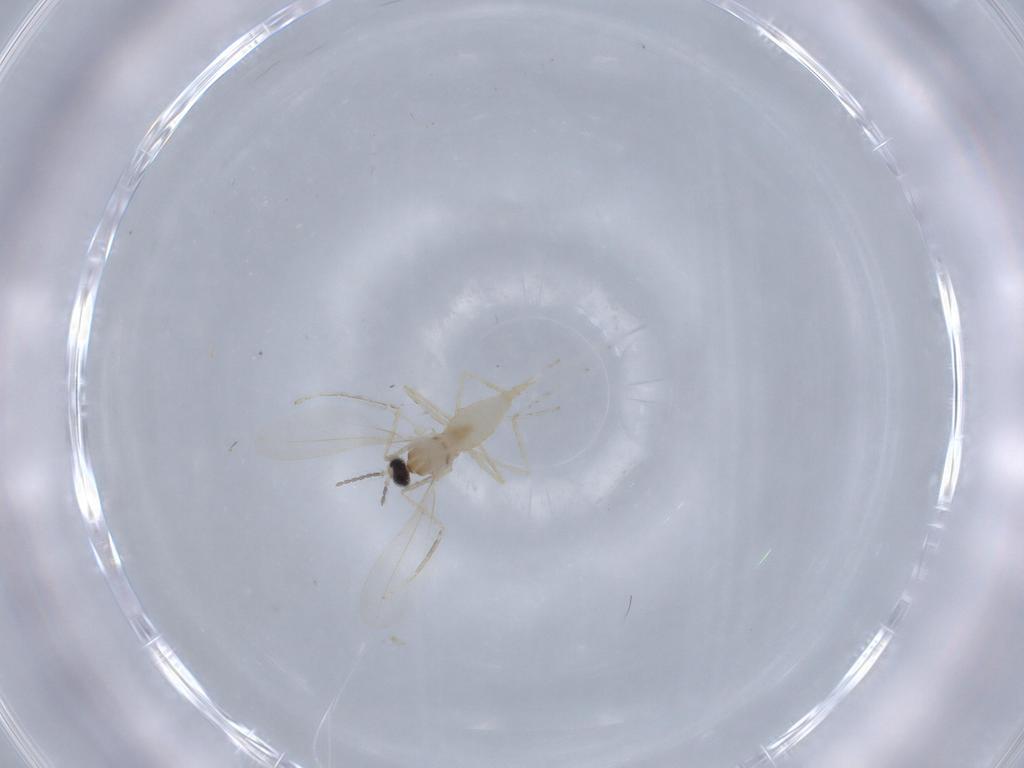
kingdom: Animalia
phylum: Arthropoda
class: Insecta
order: Diptera
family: Cecidomyiidae
